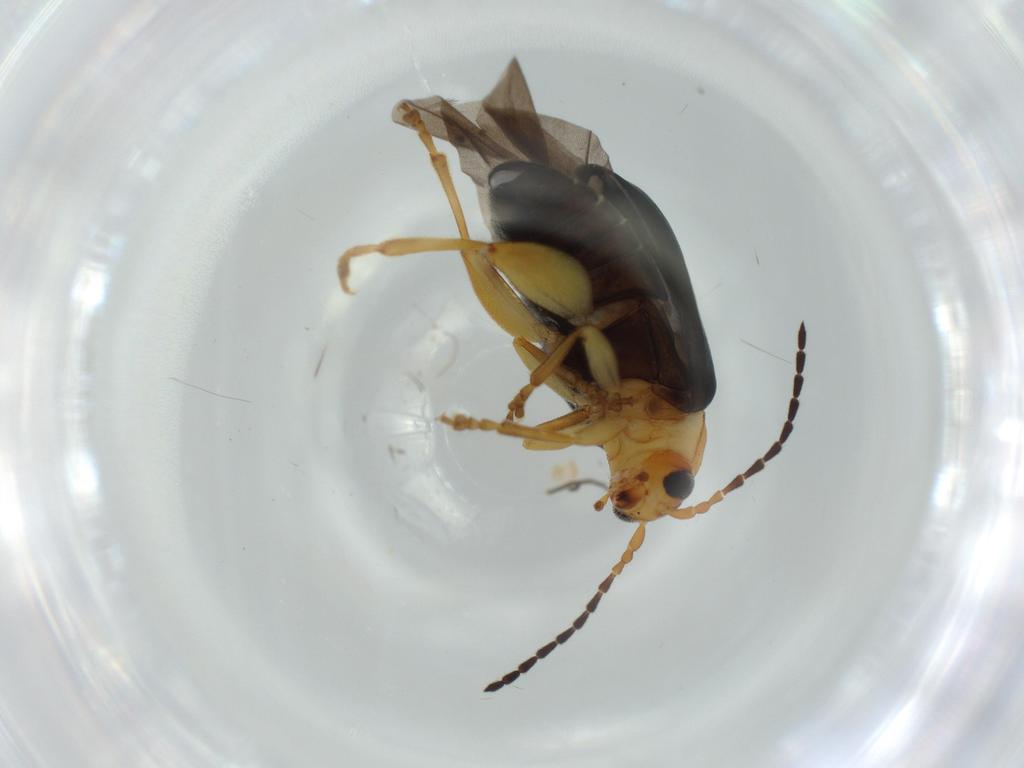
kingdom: Animalia
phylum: Arthropoda
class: Insecta
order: Coleoptera
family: Chrysomelidae
